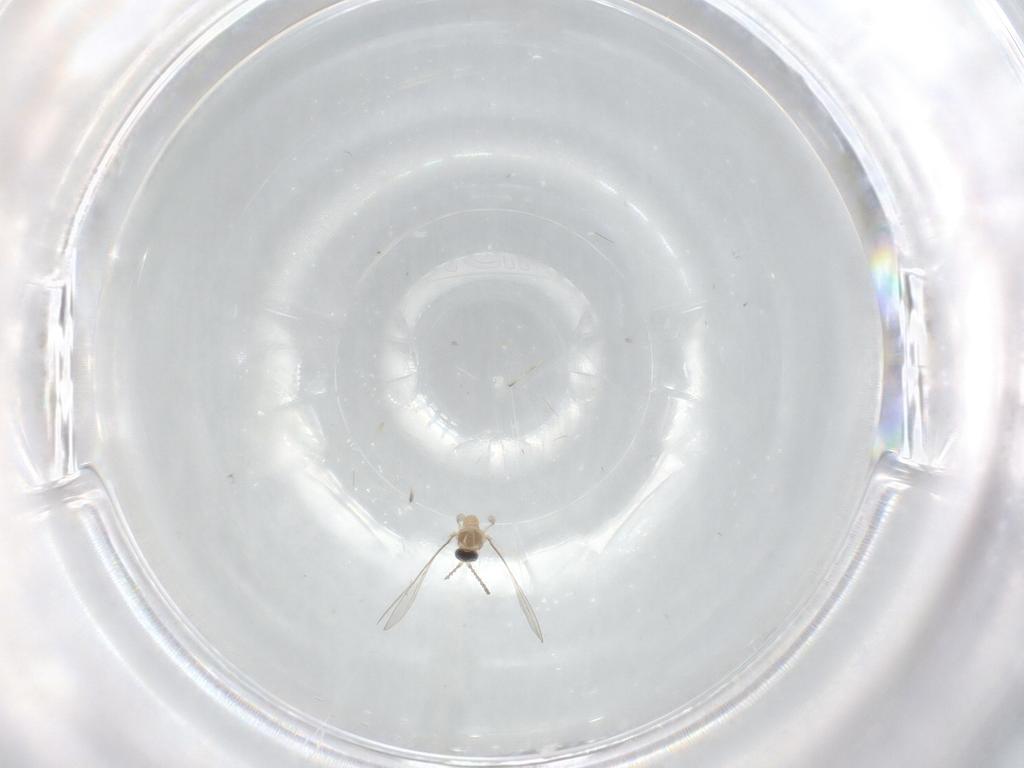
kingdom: Animalia
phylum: Arthropoda
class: Insecta
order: Diptera
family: Cecidomyiidae
